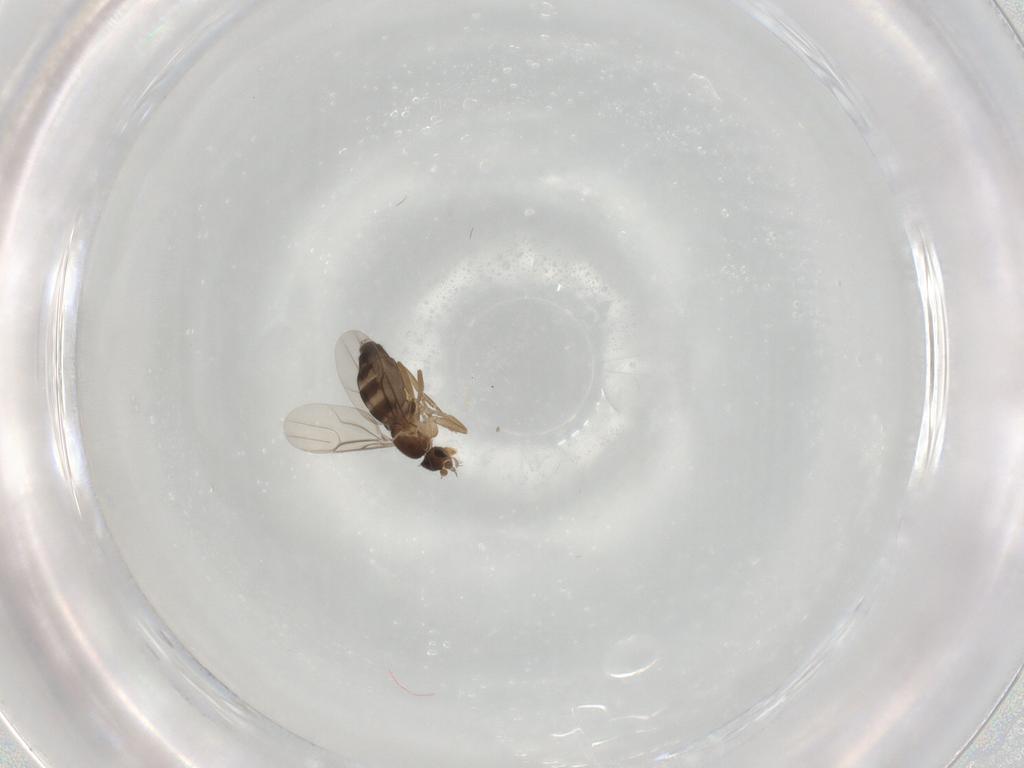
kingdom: Animalia
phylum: Arthropoda
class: Insecta
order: Diptera
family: Phoridae
